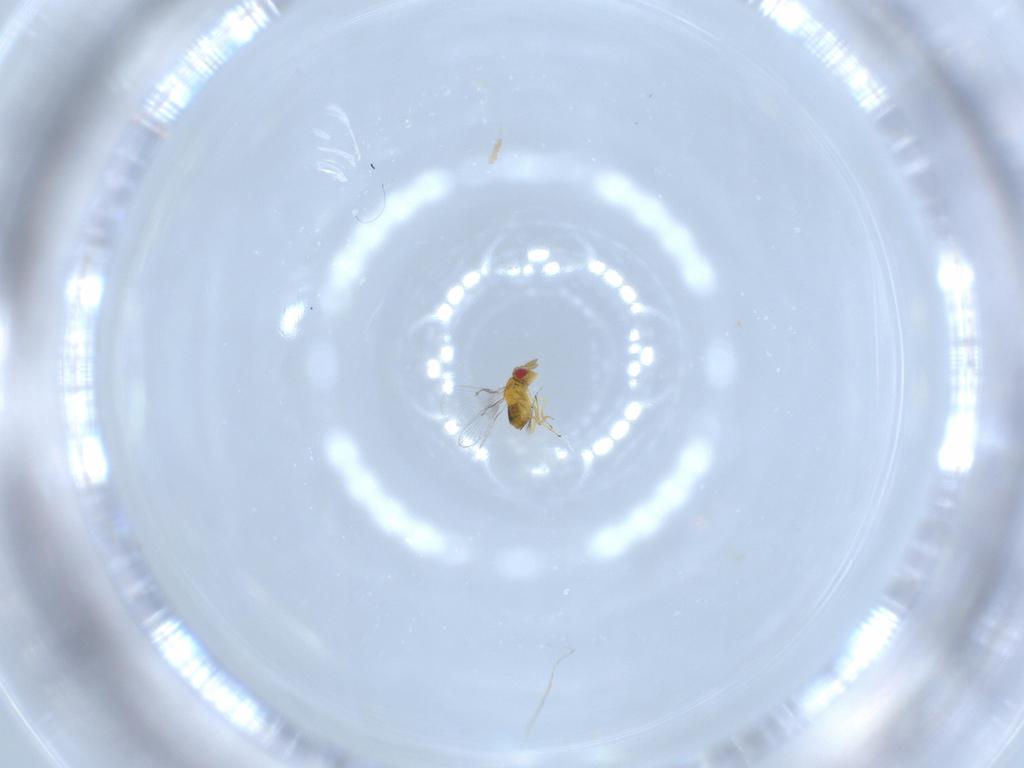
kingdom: Animalia
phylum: Arthropoda
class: Insecta
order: Hymenoptera
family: Trichogrammatidae
